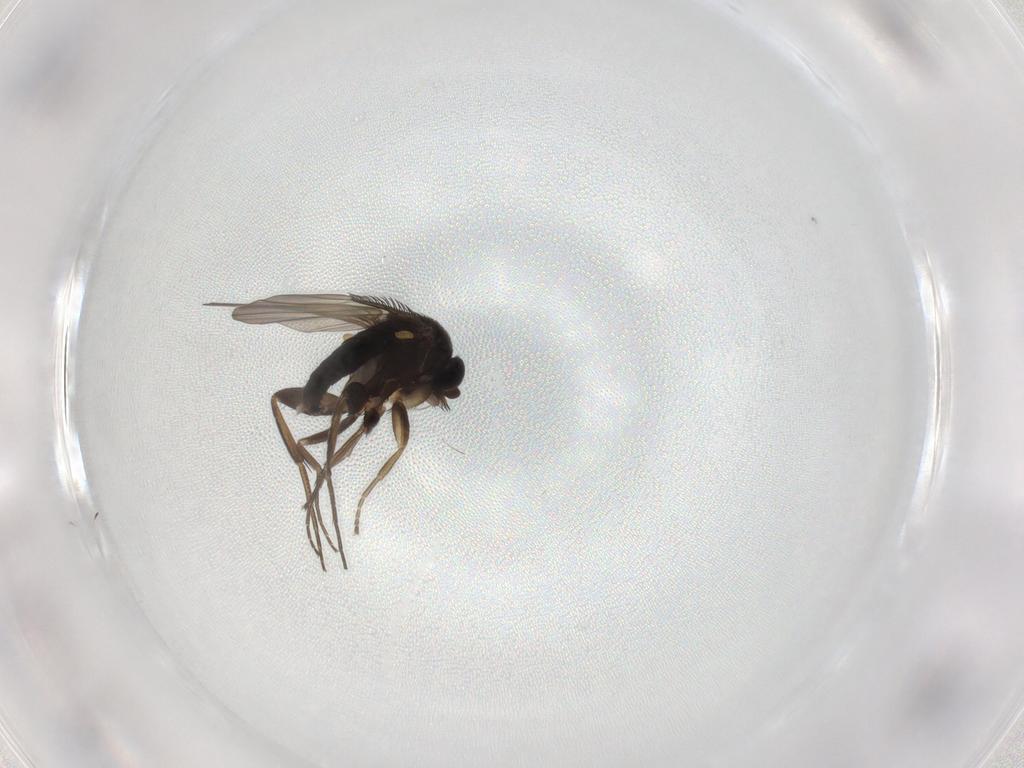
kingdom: Animalia
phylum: Arthropoda
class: Insecta
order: Diptera
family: Phoridae
